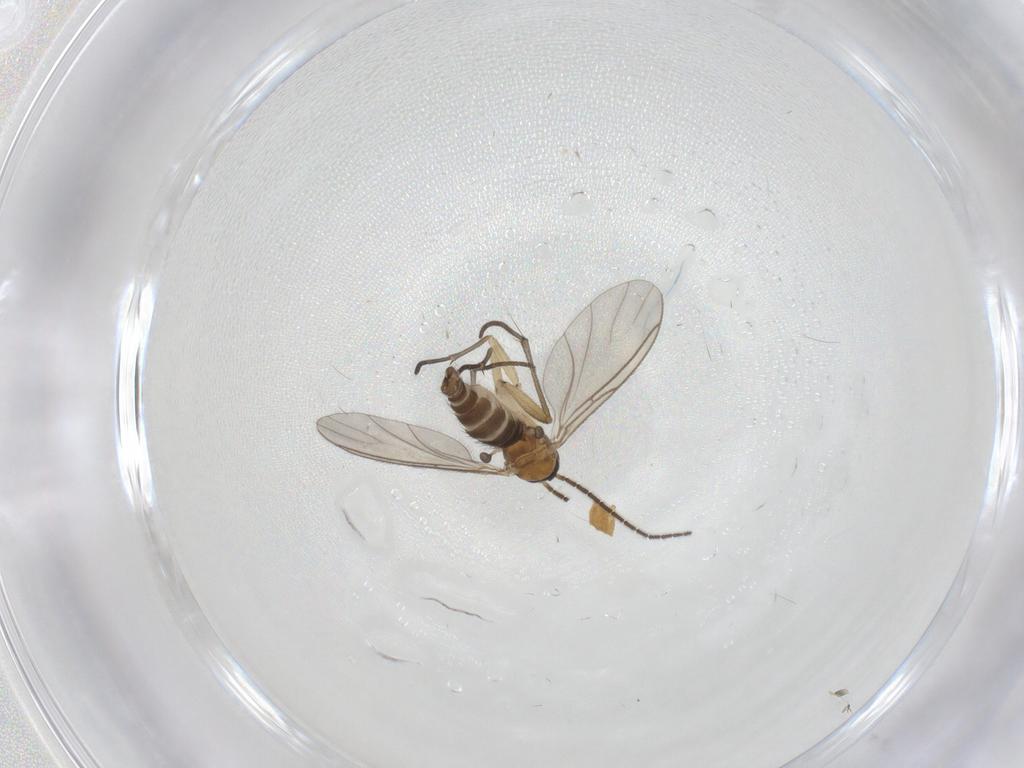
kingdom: Animalia
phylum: Arthropoda
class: Insecta
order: Diptera
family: Sciaridae
